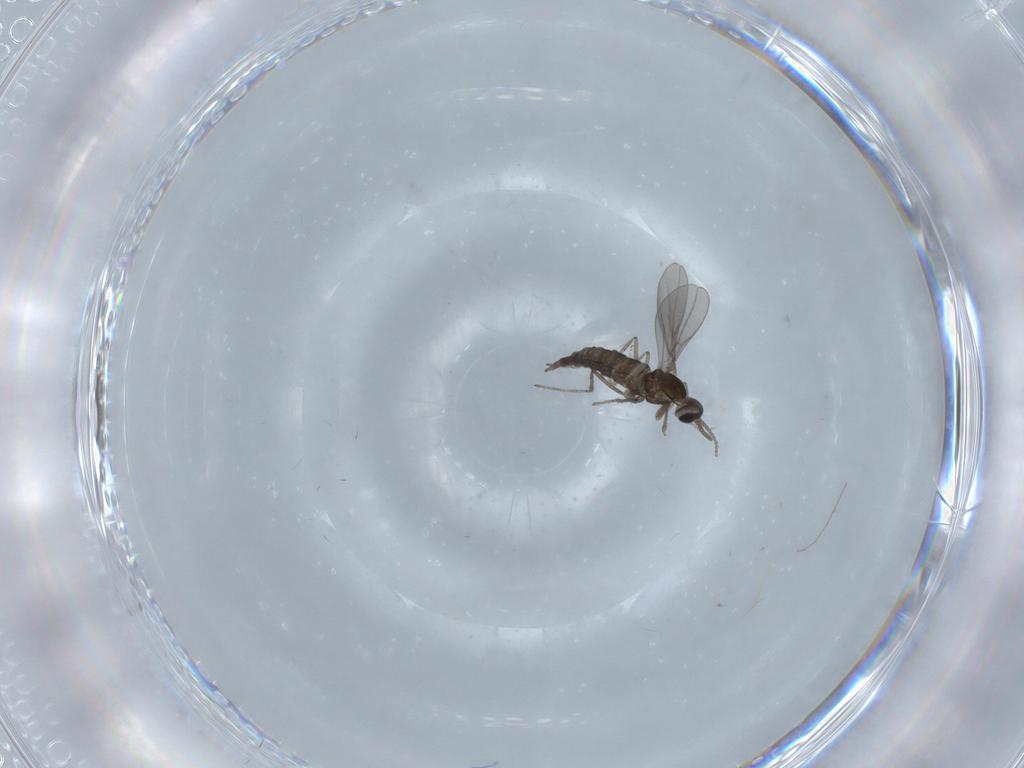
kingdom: Animalia
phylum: Arthropoda
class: Insecta
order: Diptera
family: Chironomidae
